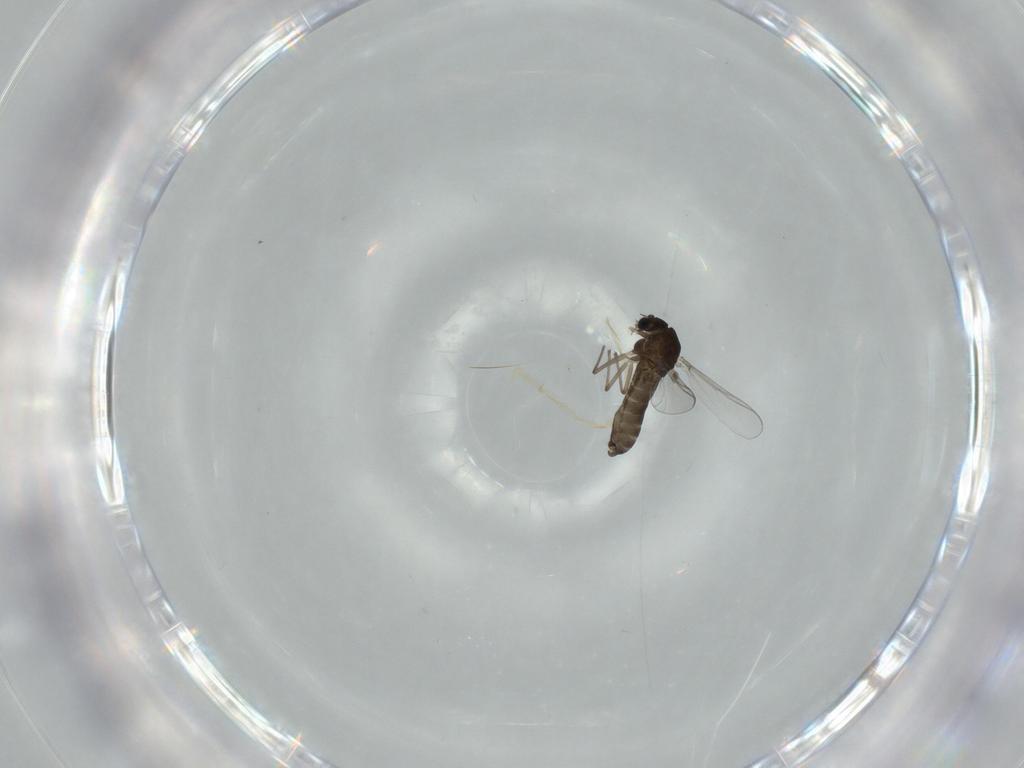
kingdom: Animalia
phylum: Arthropoda
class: Insecta
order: Diptera
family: Chironomidae
